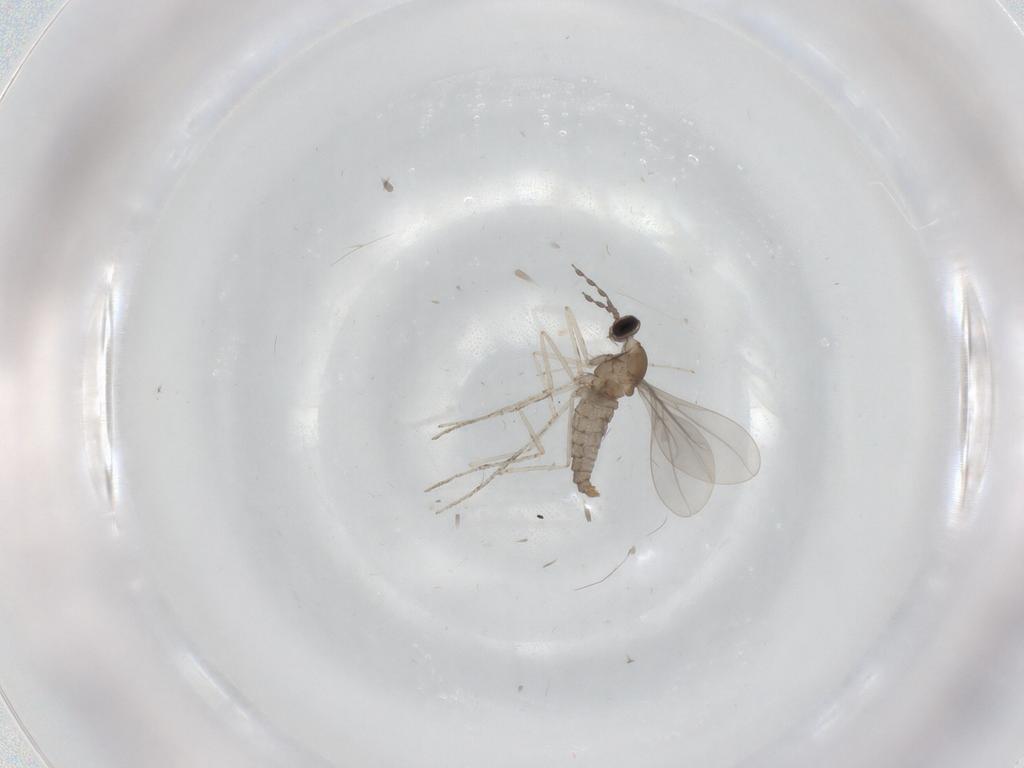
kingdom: Animalia
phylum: Arthropoda
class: Insecta
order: Diptera
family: Cecidomyiidae
